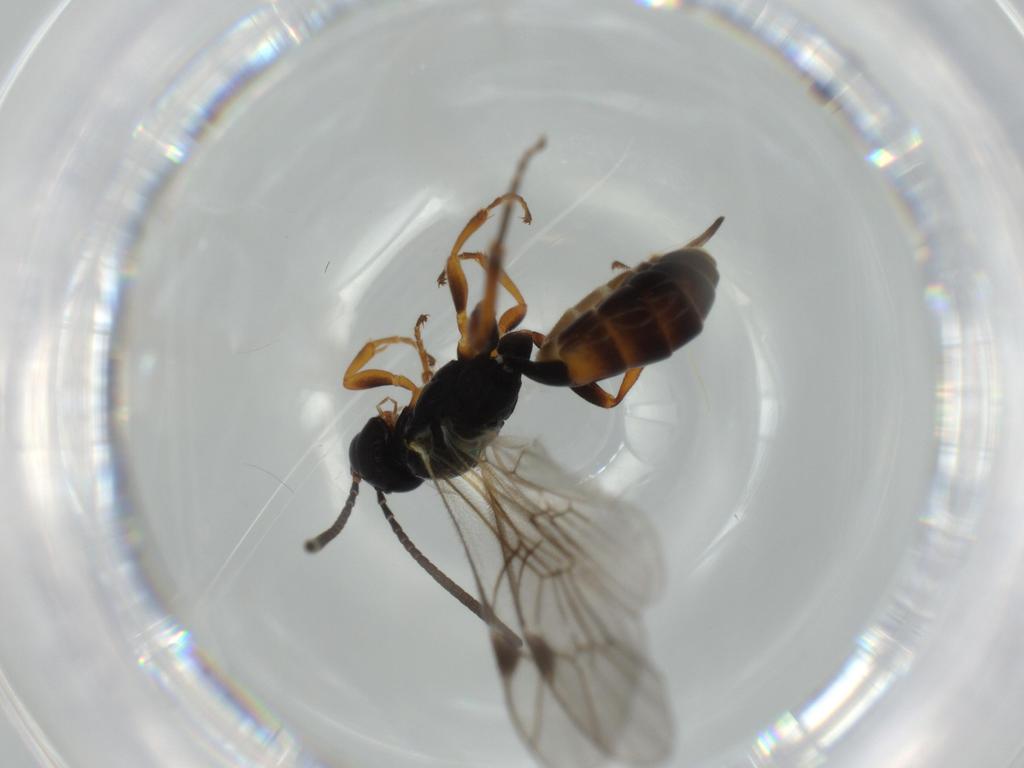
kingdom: Animalia
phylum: Arthropoda
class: Insecta
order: Hymenoptera
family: Ichneumonidae
